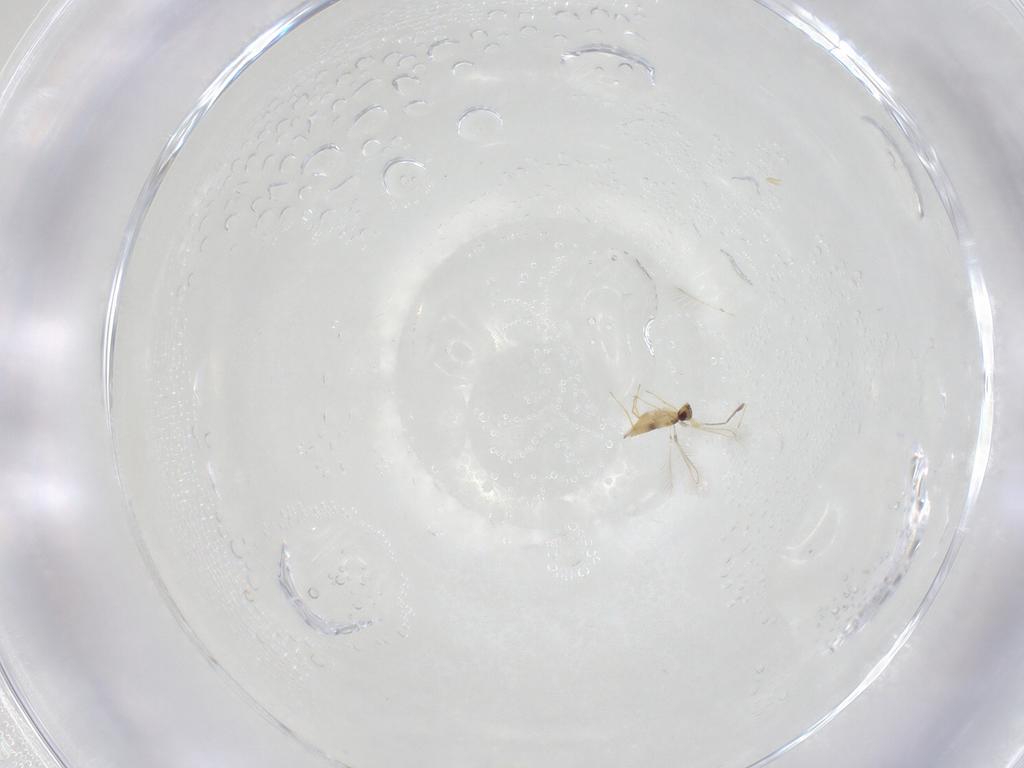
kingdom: Animalia
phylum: Arthropoda
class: Insecta
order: Hymenoptera
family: Mymaridae
